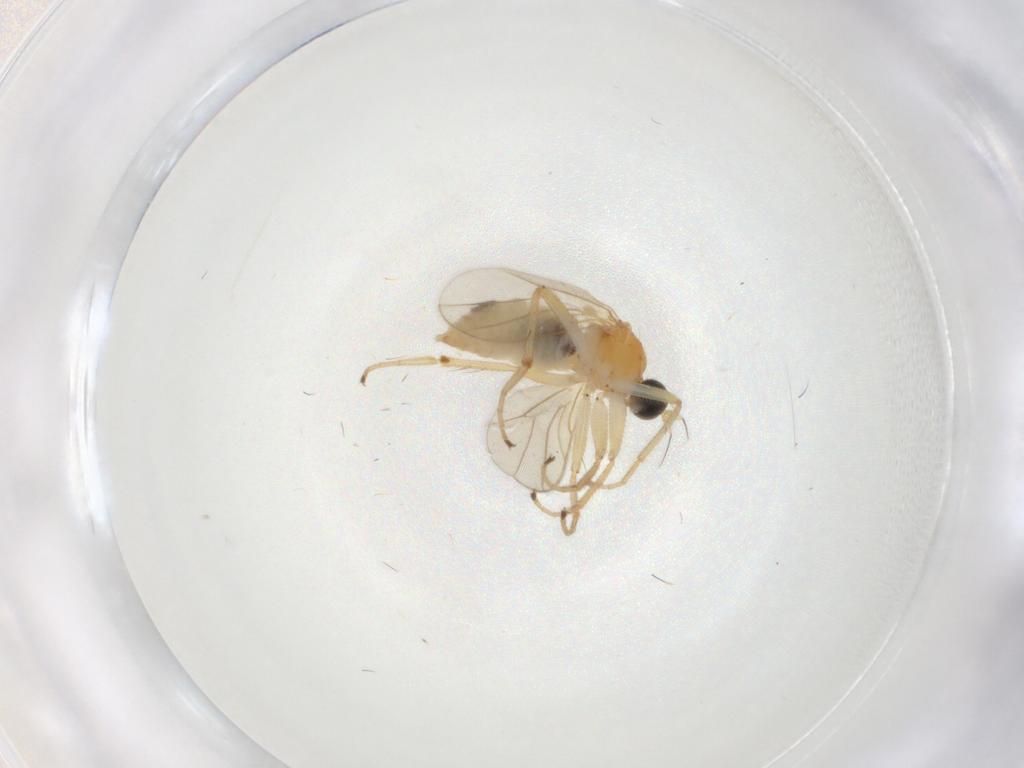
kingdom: Animalia
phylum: Arthropoda
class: Insecta
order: Diptera
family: Hybotidae
